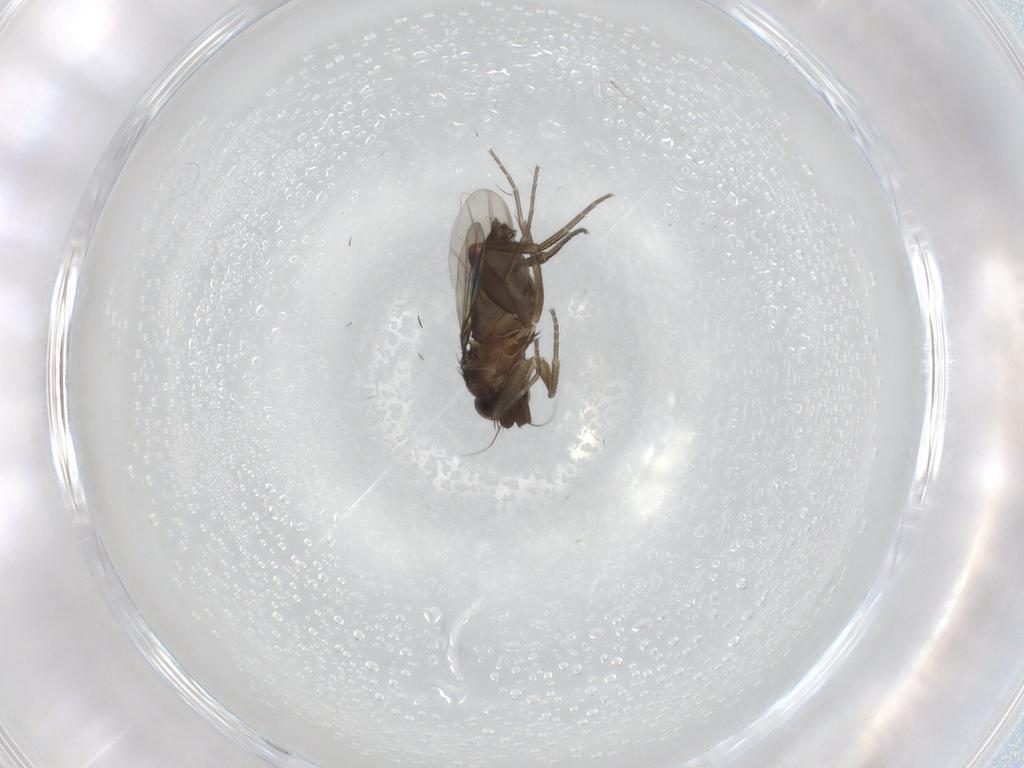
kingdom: Animalia
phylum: Arthropoda
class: Insecta
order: Diptera
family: Phoridae
